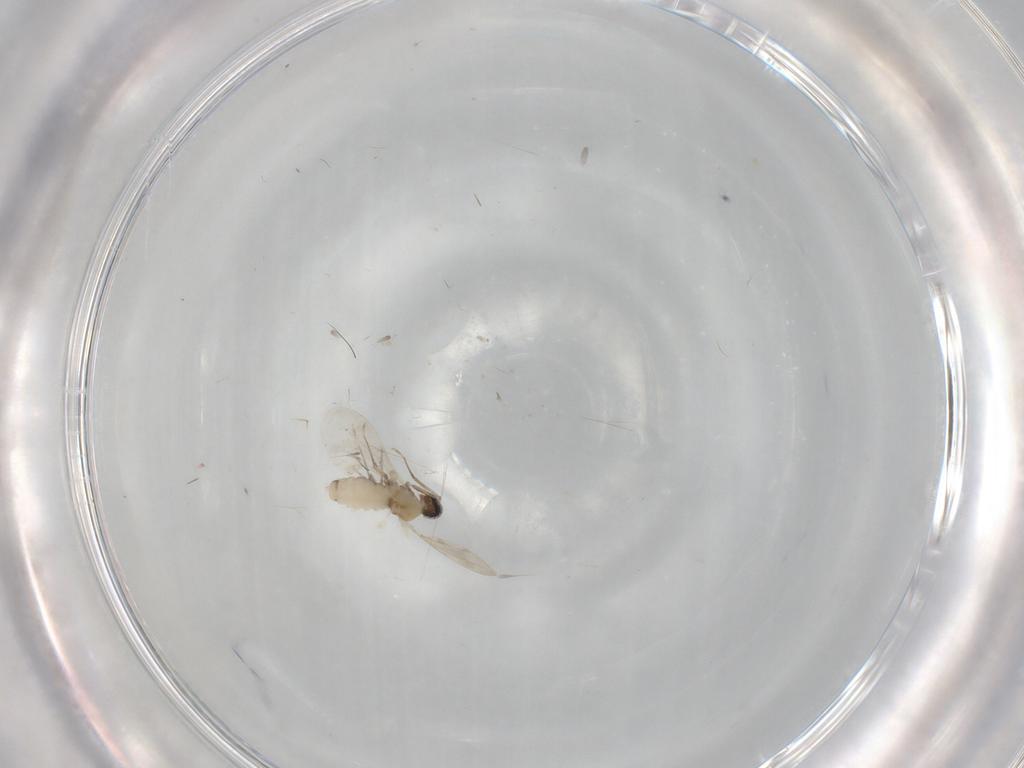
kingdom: Animalia
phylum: Arthropoda
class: Insecta
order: Diptera
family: Cecidomyiidae
